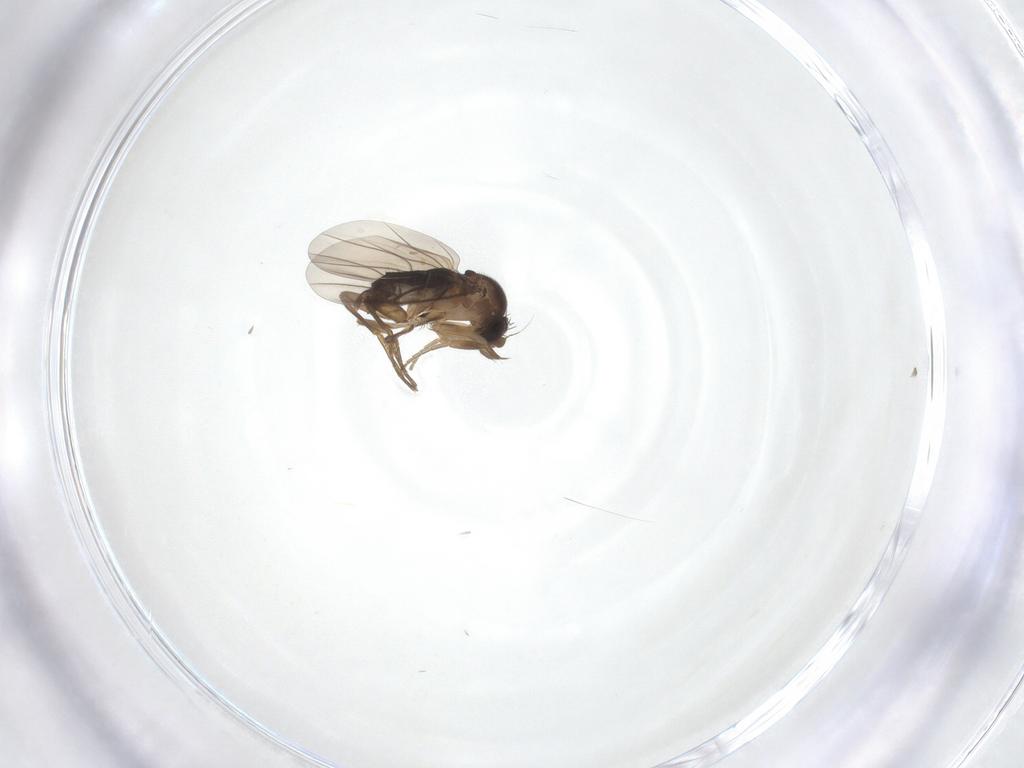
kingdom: Animalia
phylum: Arthropoda
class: Insecta
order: Diptera
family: Phoridae
